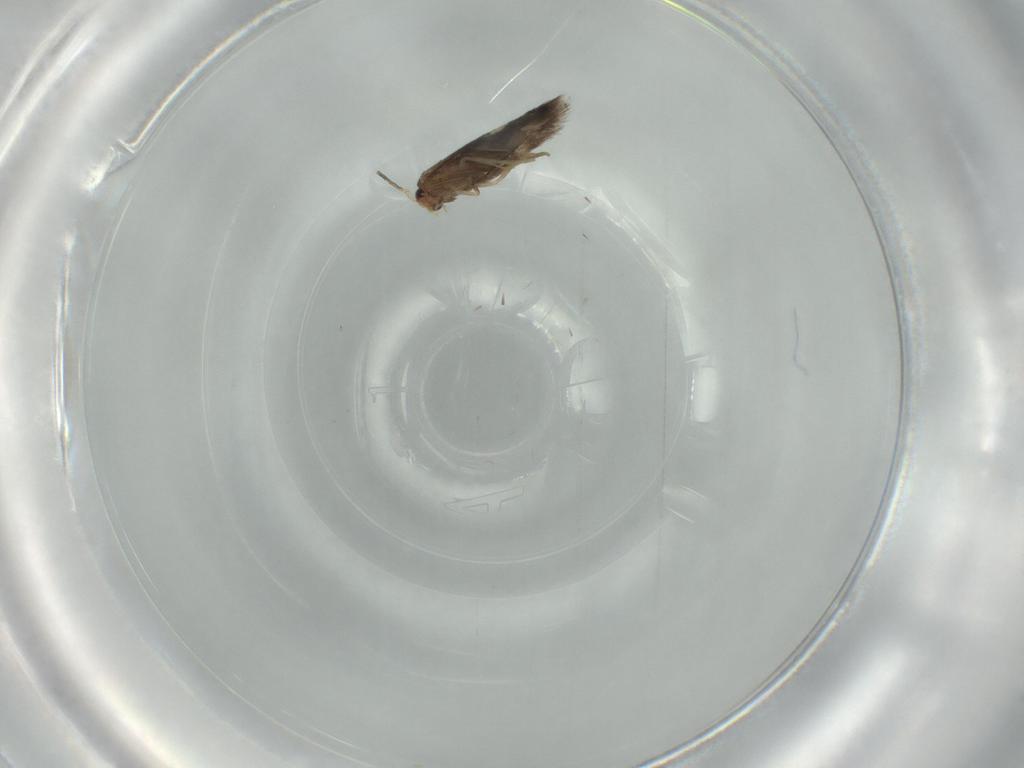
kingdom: Animalia
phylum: Arthropoda
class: Insecta
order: Lepidoptera
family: Nepticulidae
